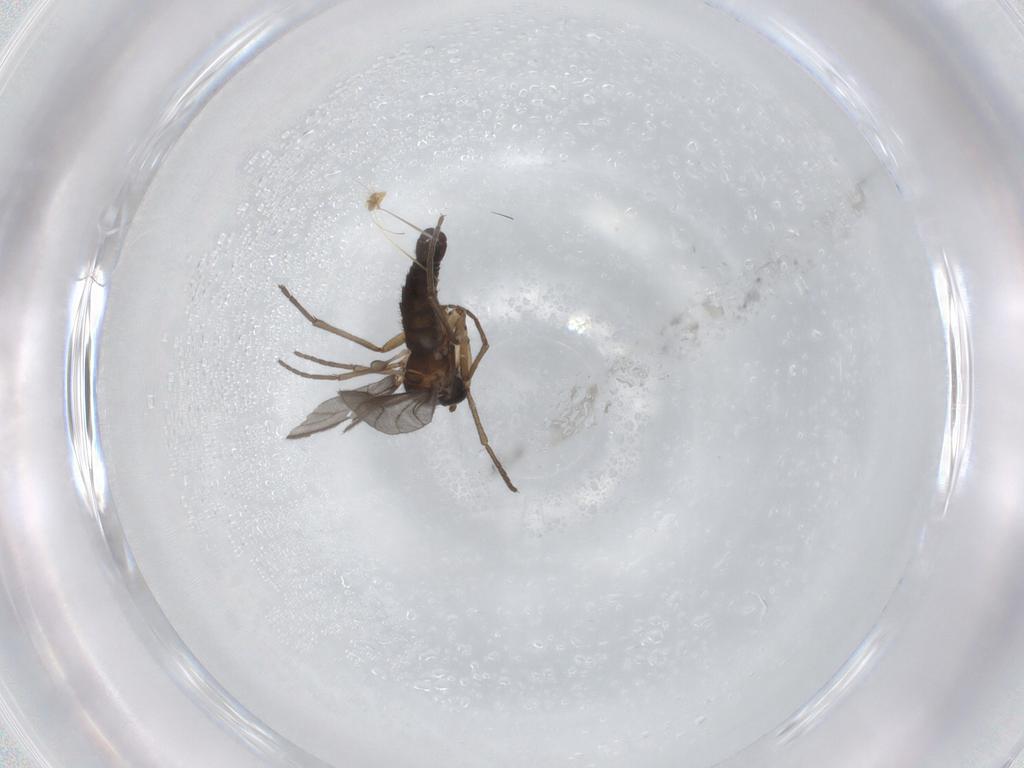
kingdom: Animalia
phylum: Arthropoda
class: Insecta
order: Diptera
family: Sciaridae
